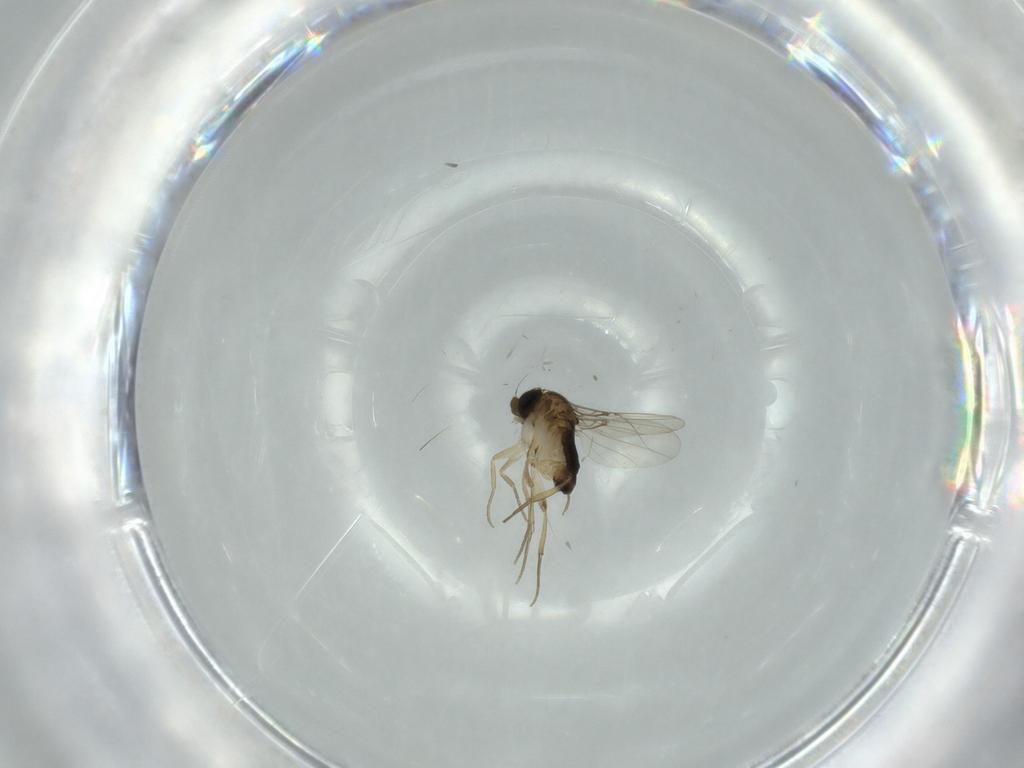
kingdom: Animalia
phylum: Arthropoda
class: Insecta
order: Diptera
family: Phoridae
